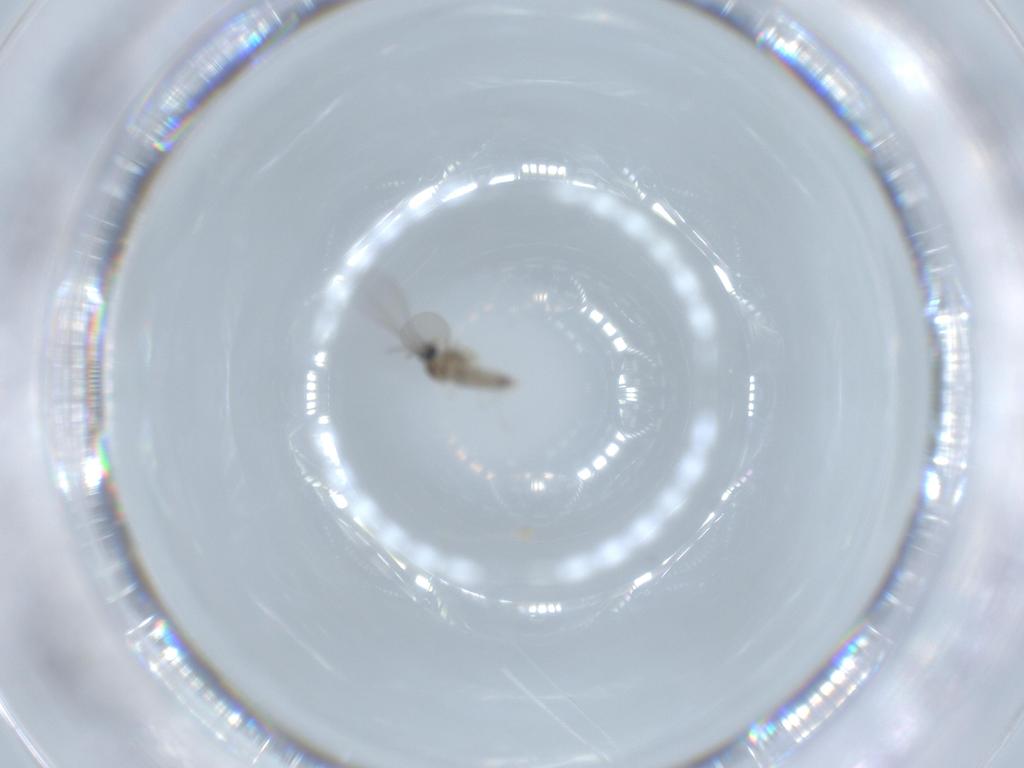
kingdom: Animalia
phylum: Arthropoda
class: Insecta
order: Diptera
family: Cecidomyiidae
